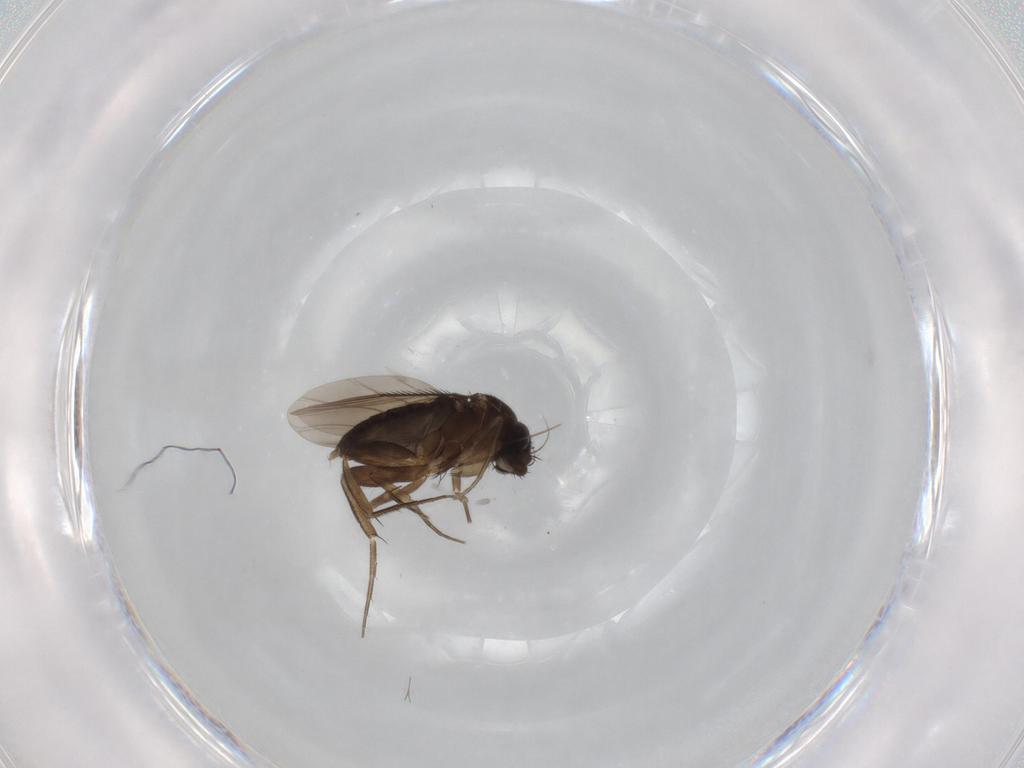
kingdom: Animalia
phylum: Arthropoda
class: Insecta
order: Diptera
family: Phoridae
